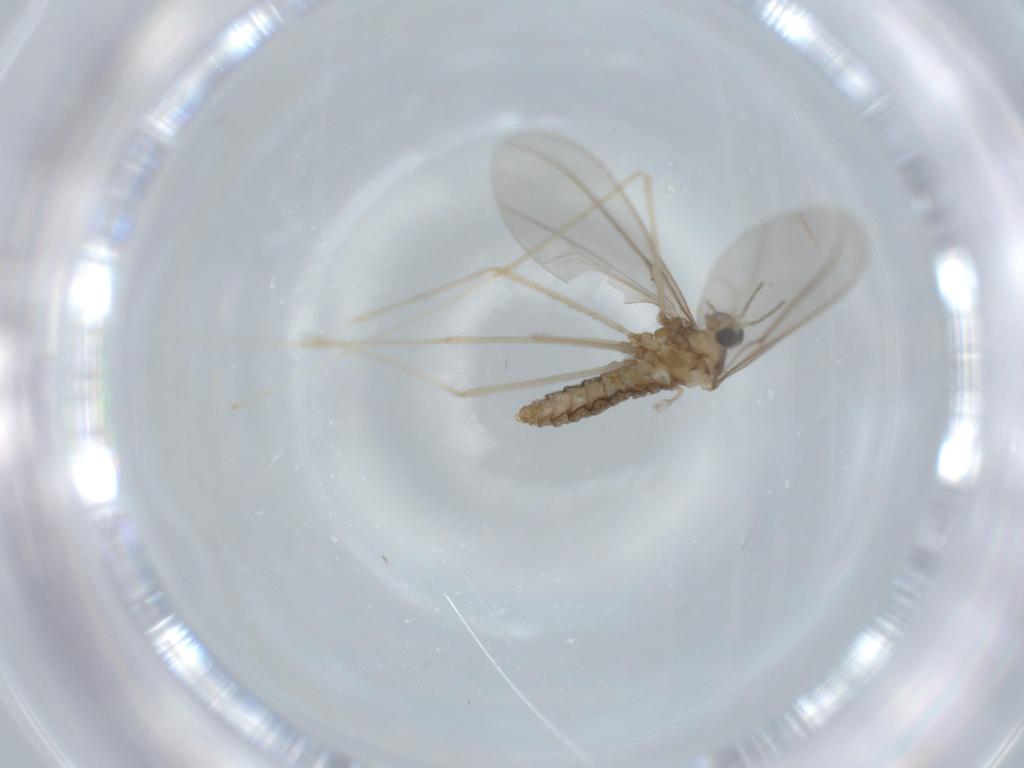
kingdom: Animalia
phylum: Arthropoda
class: Insecta
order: Diptera
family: Cecidomyiidae
